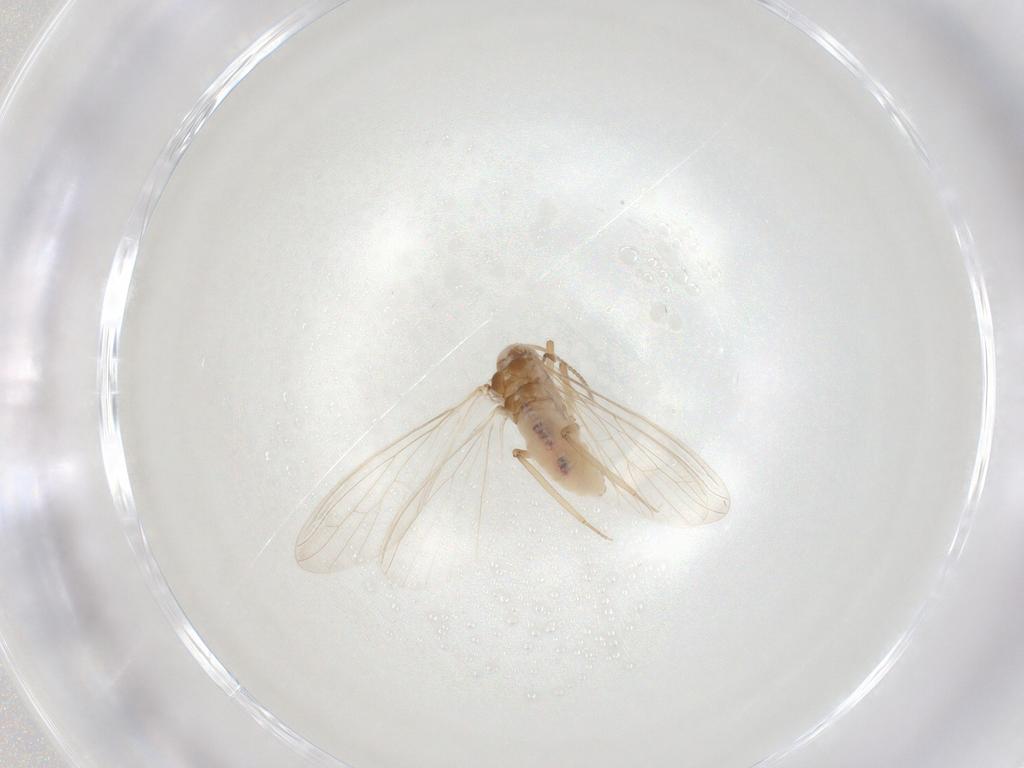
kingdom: Animalia
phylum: Arthropoda
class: Insecta
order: Neuroptera
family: Coniopterygidae
